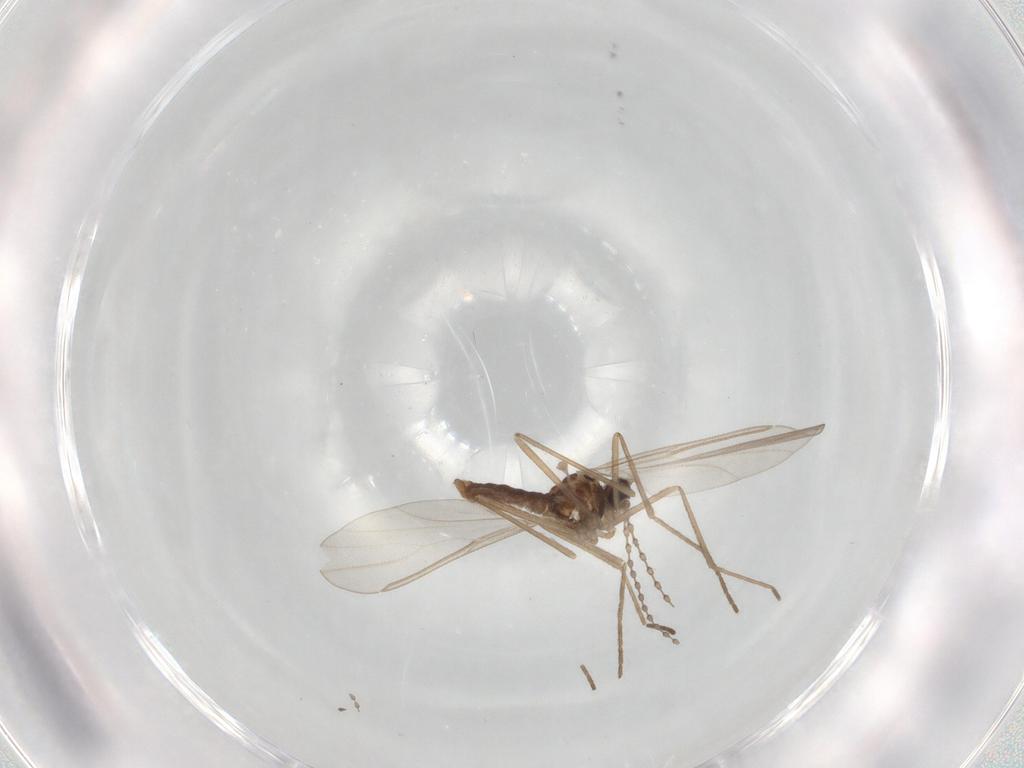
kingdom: Animalia
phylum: Arthropoda
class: Insecta
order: Diptera
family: Cecidomyiidae
